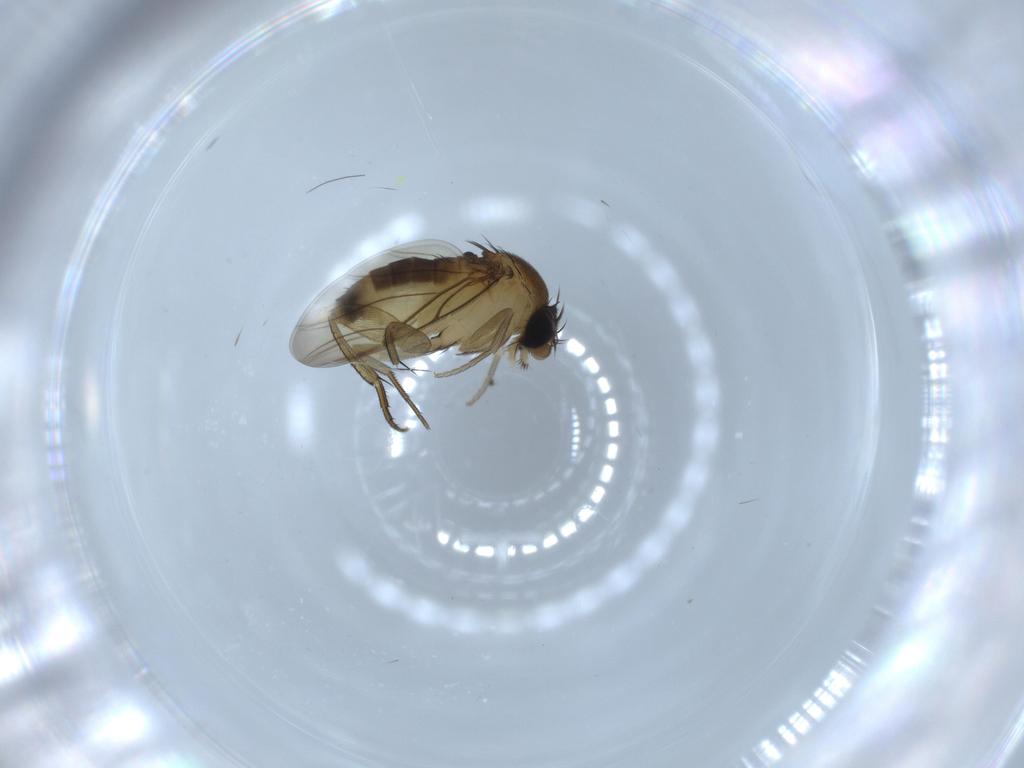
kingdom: Animalia
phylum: Arthropoda
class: Insecta
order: Diptera
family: Phoridae
